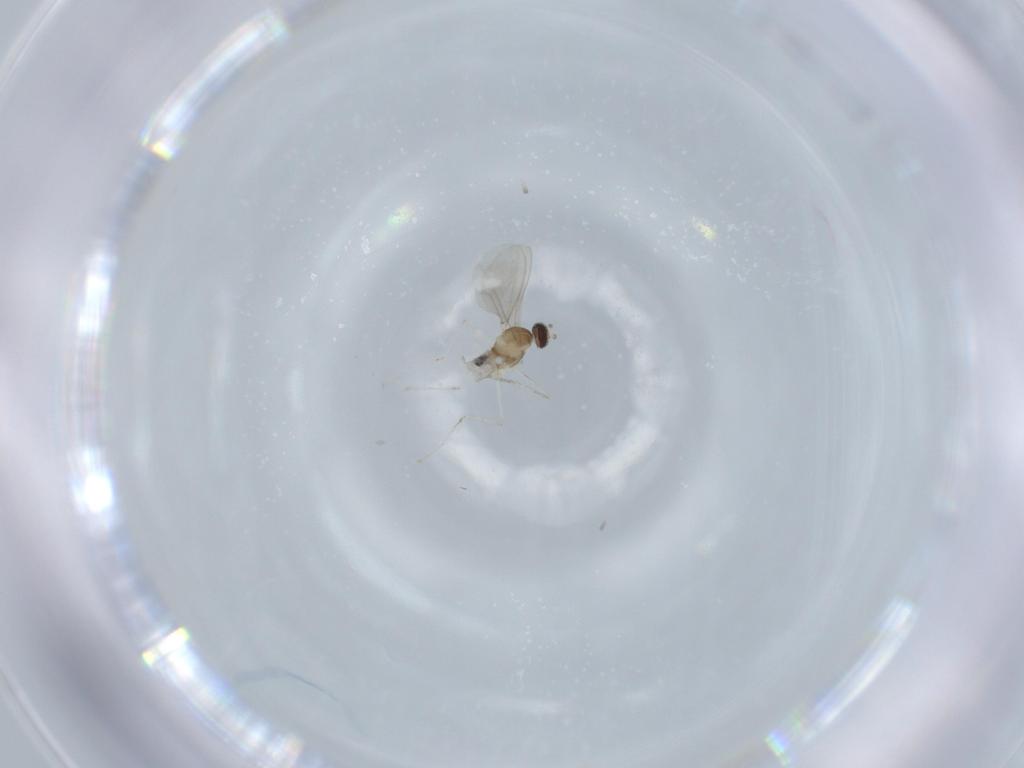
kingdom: Animalia
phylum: Arthropoda
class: Insecta
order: Diptera
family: Cecidomyiidae
